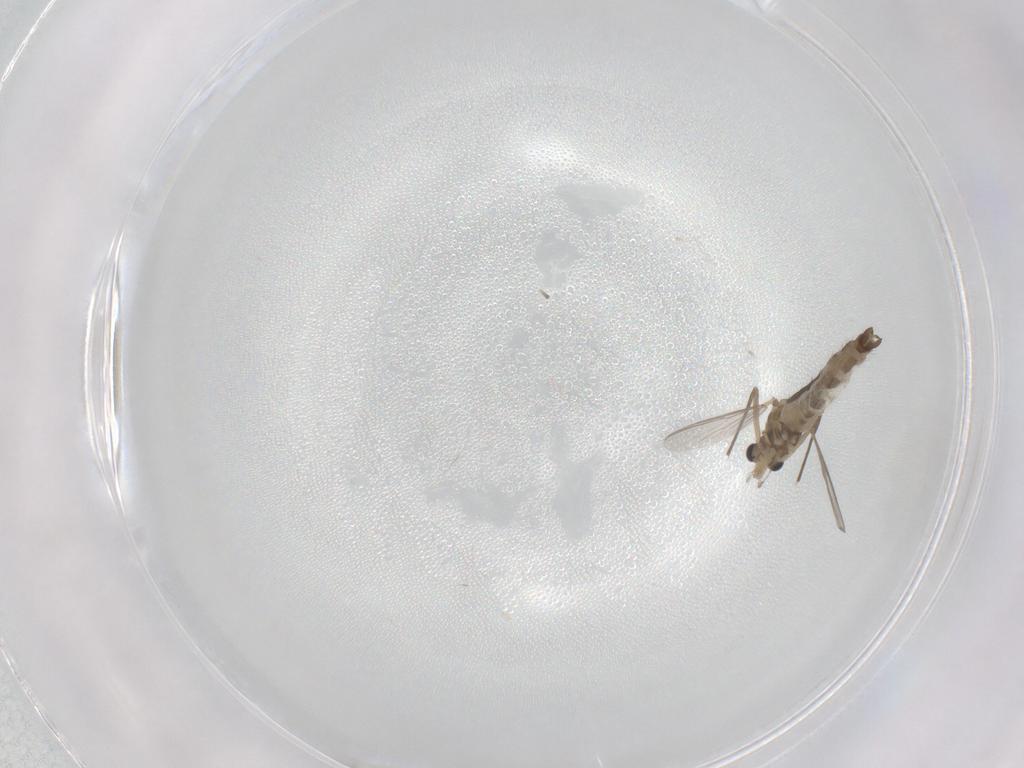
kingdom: Animalia
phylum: Arthropoda
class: Insecta
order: Diptera
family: Chironomidae
